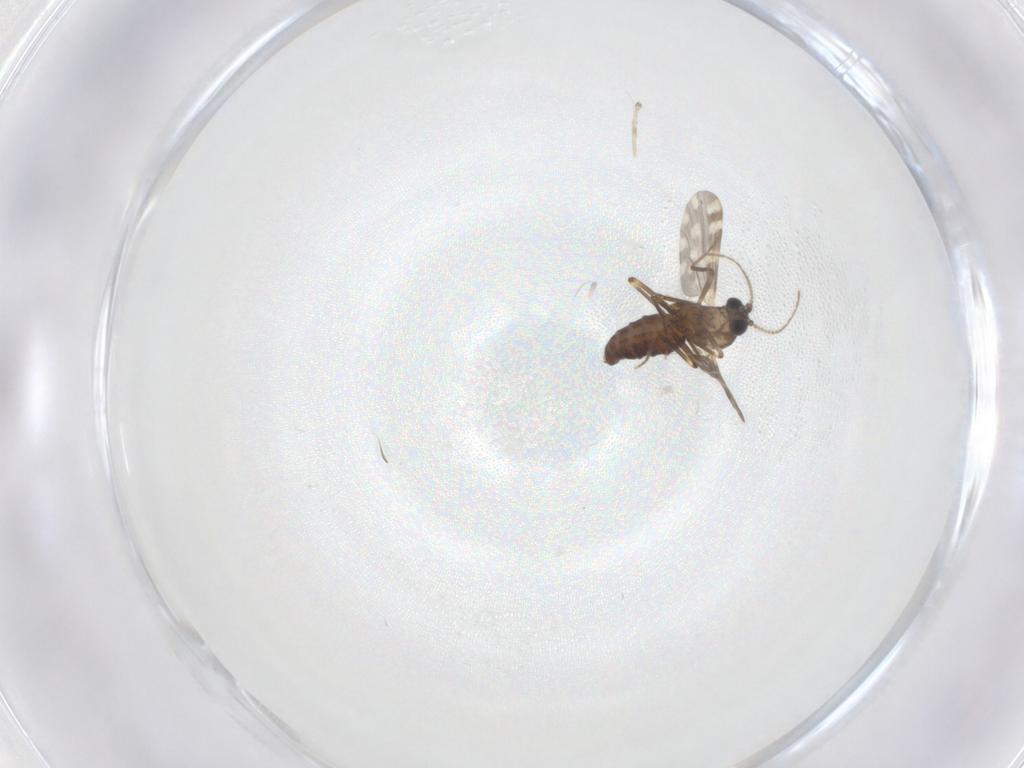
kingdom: Animalia
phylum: Arthropoda
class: Insecta
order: Diptera
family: Ceratopogonidae
